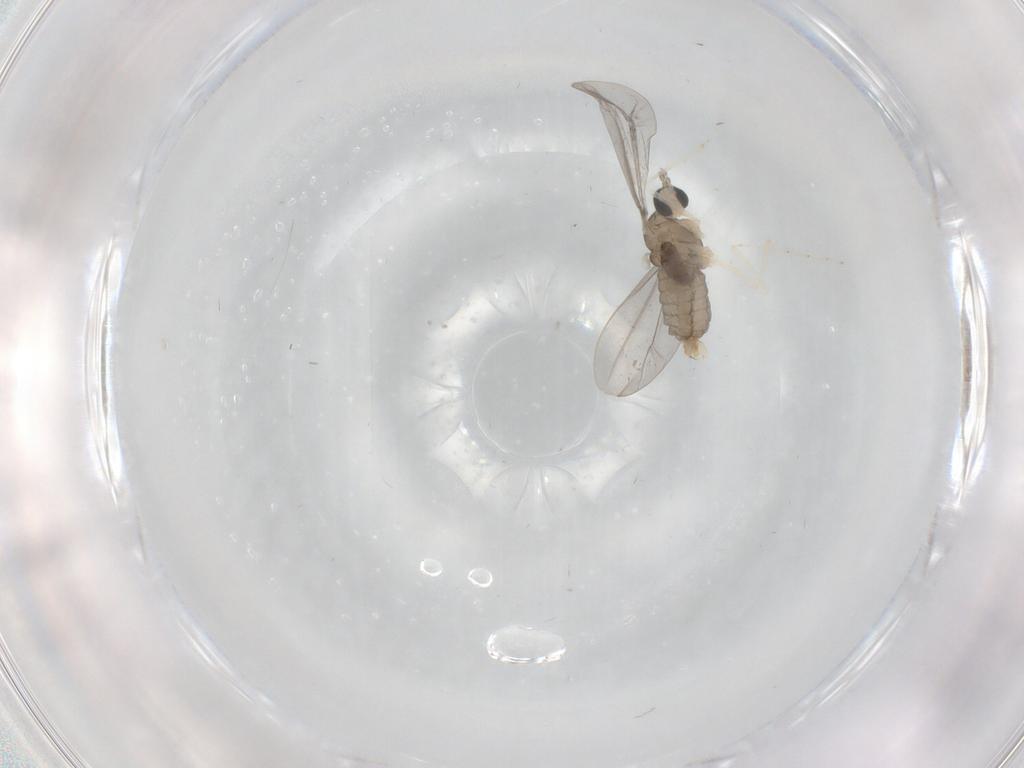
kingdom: Animalia
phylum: Arthropoda
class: Insecta
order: Diptera
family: Cecidomyiidae
